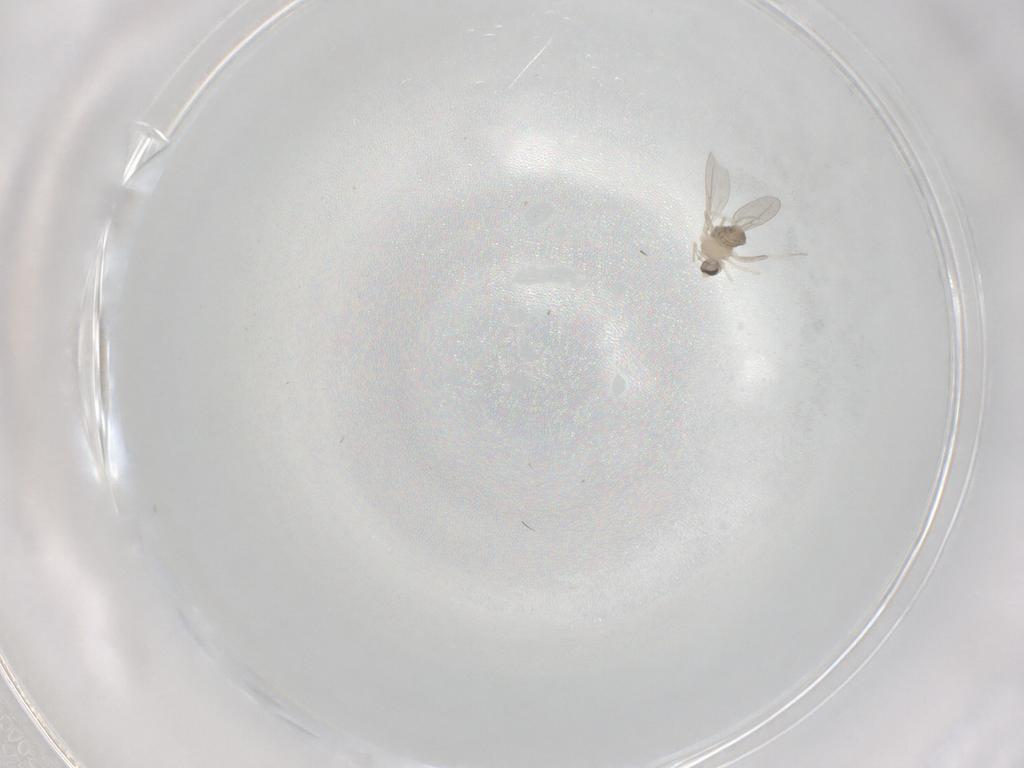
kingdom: Animalia
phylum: Arthropoda
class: Insecta
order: Diptera
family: Cecidomyiidae
